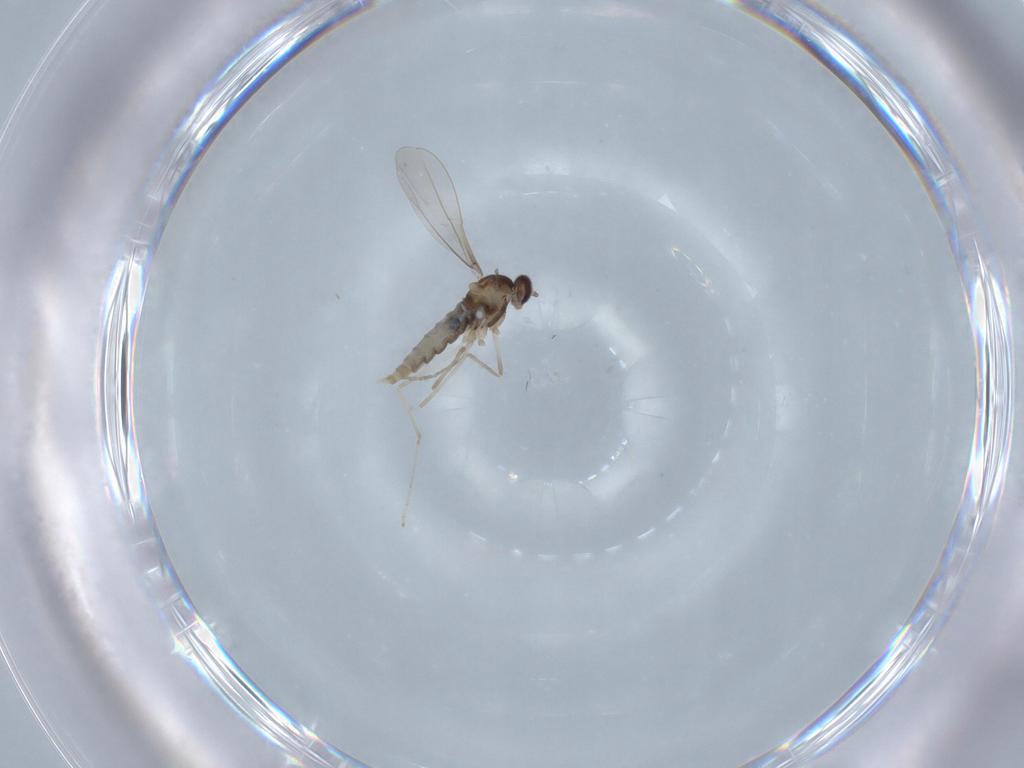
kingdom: Animalia
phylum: Arthropoda
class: Insecta
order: Diptera
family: Cecidomyiidae
